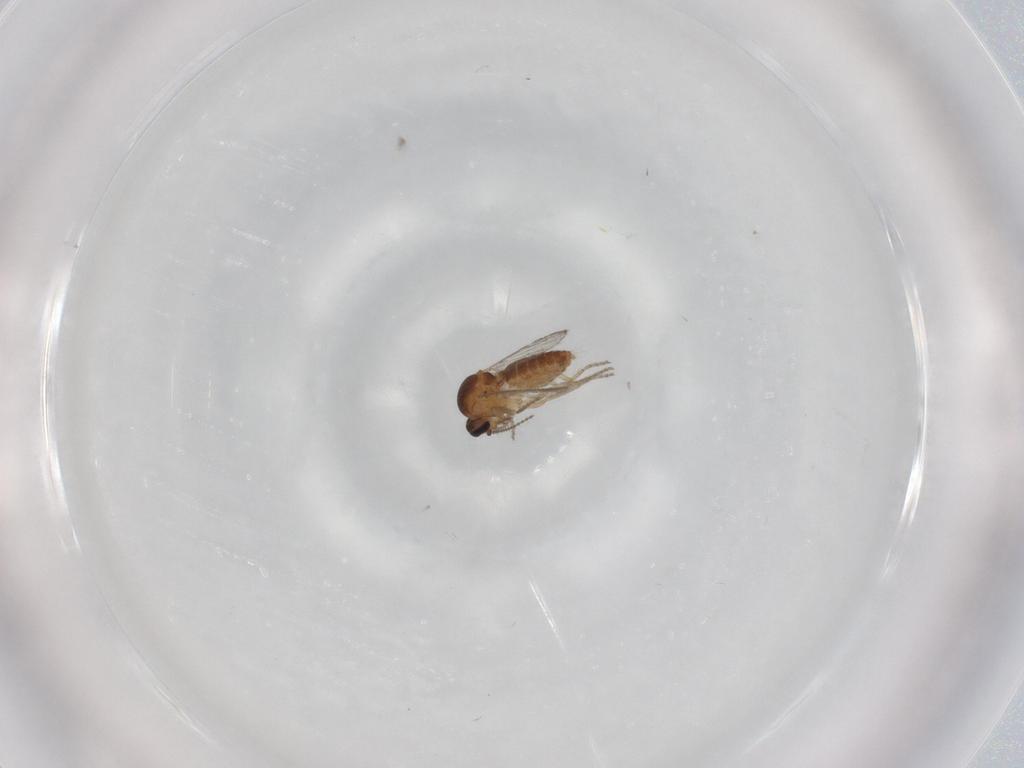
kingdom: Animalia
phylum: Arthropoda
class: Insecta
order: Diptera
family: Ceratopogonidae
